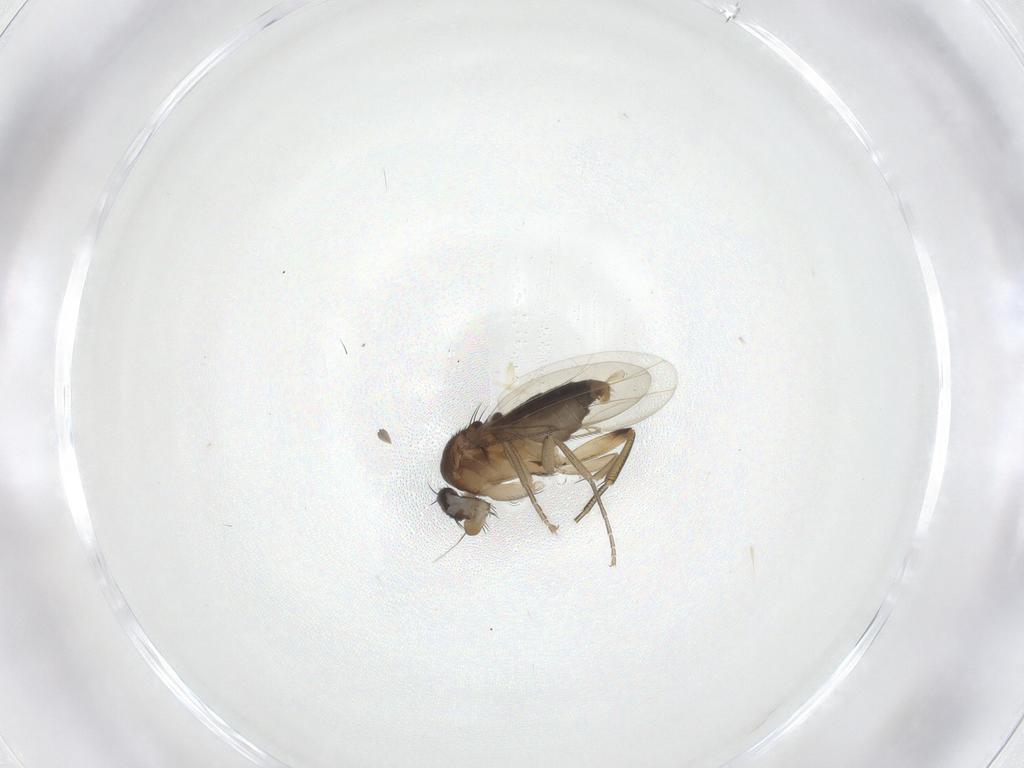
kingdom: Animalia
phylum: Arthropoda
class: Insecta
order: Diptera
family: Phoridae
